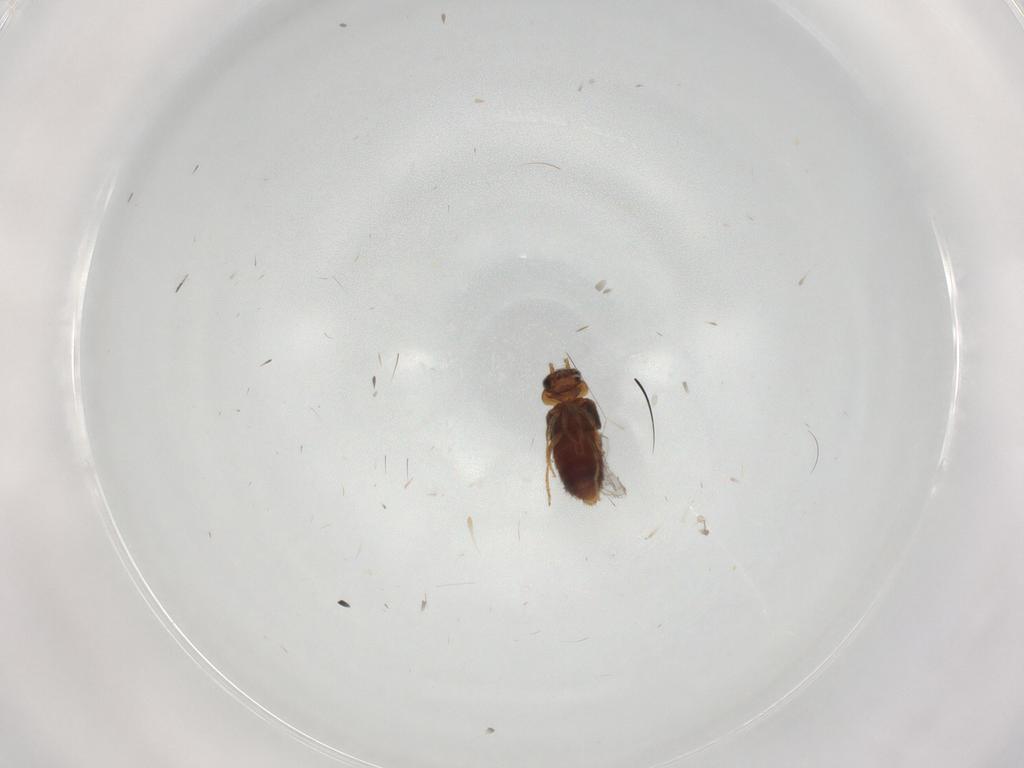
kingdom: Animalia
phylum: Arthropoda
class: Insecta
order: Coleoptera
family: Staphylinidae
